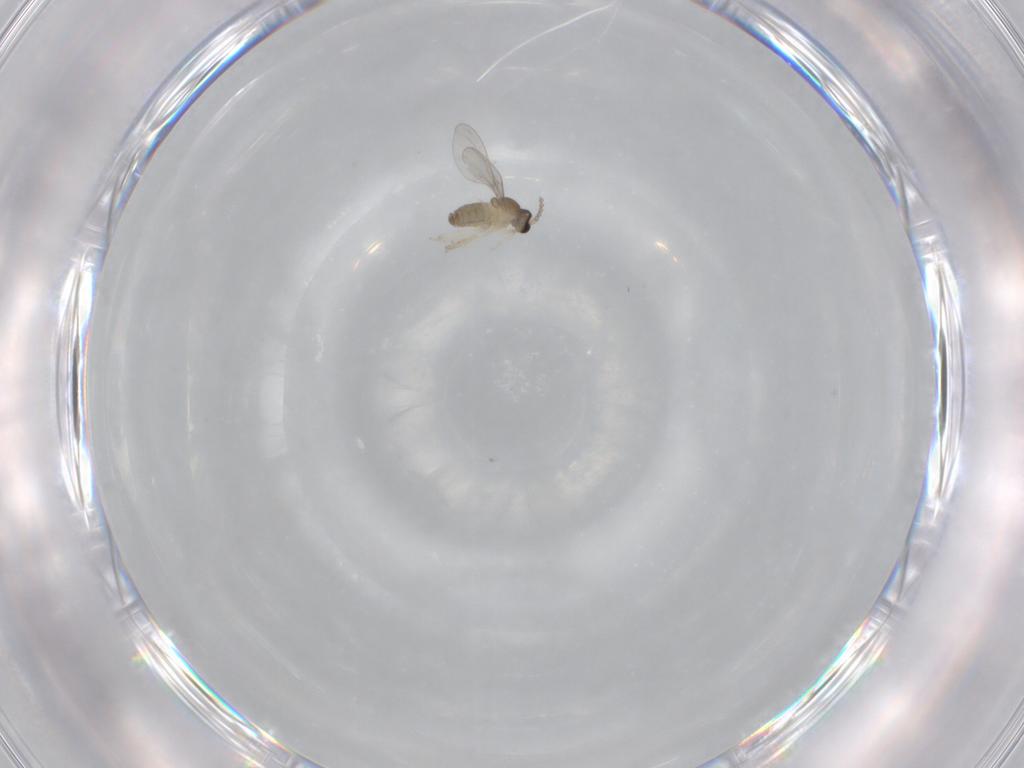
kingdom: Animalia
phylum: Arthropoda
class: Insecta
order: Diptera
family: Cecidomyiidae
